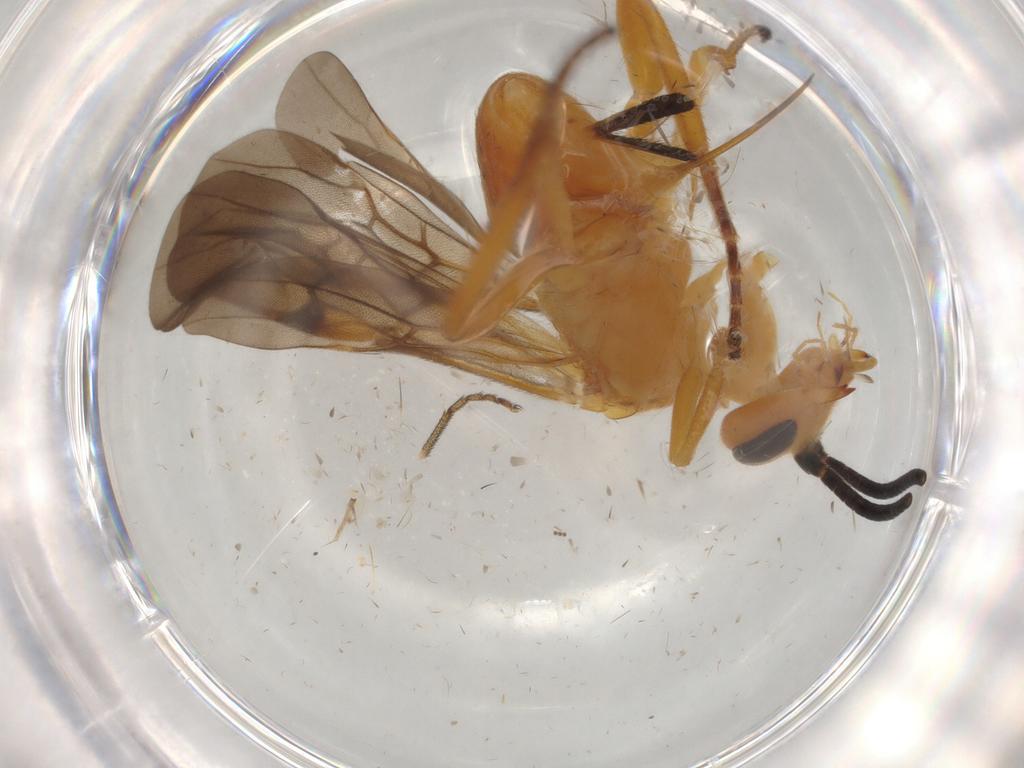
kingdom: Animalia
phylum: Arthropoda
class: Insecta
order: Hymenoptera
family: Braconidae
